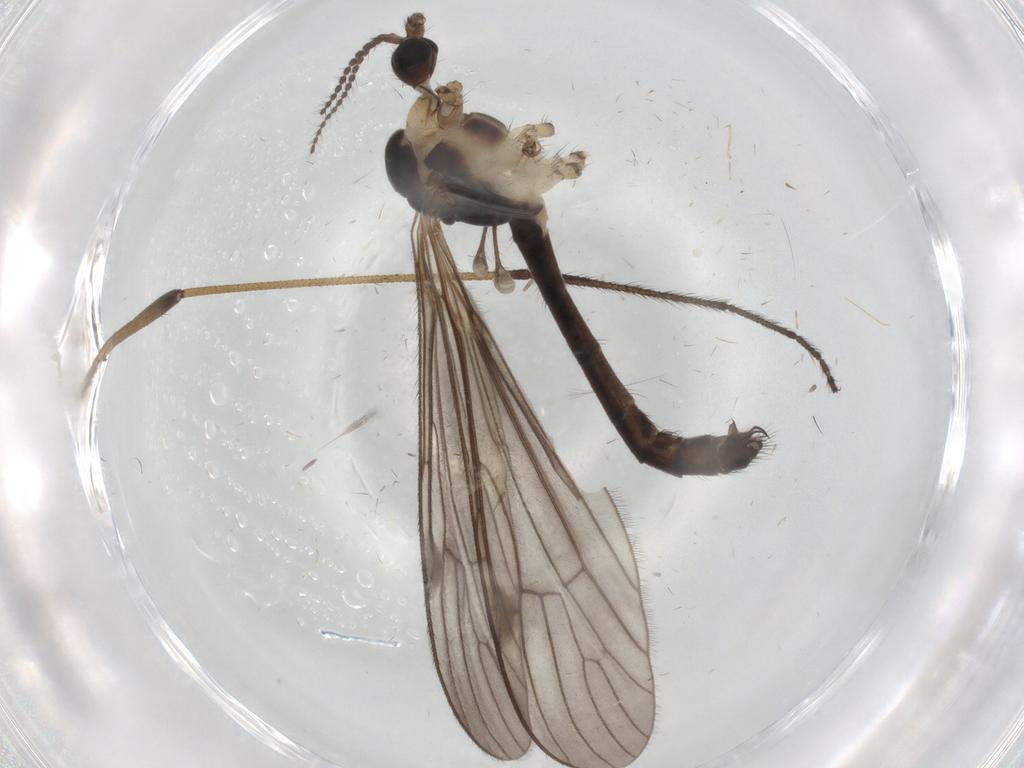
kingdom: Animalia
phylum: Arthropoda
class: Insecta
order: Diptera
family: Limoniidae
